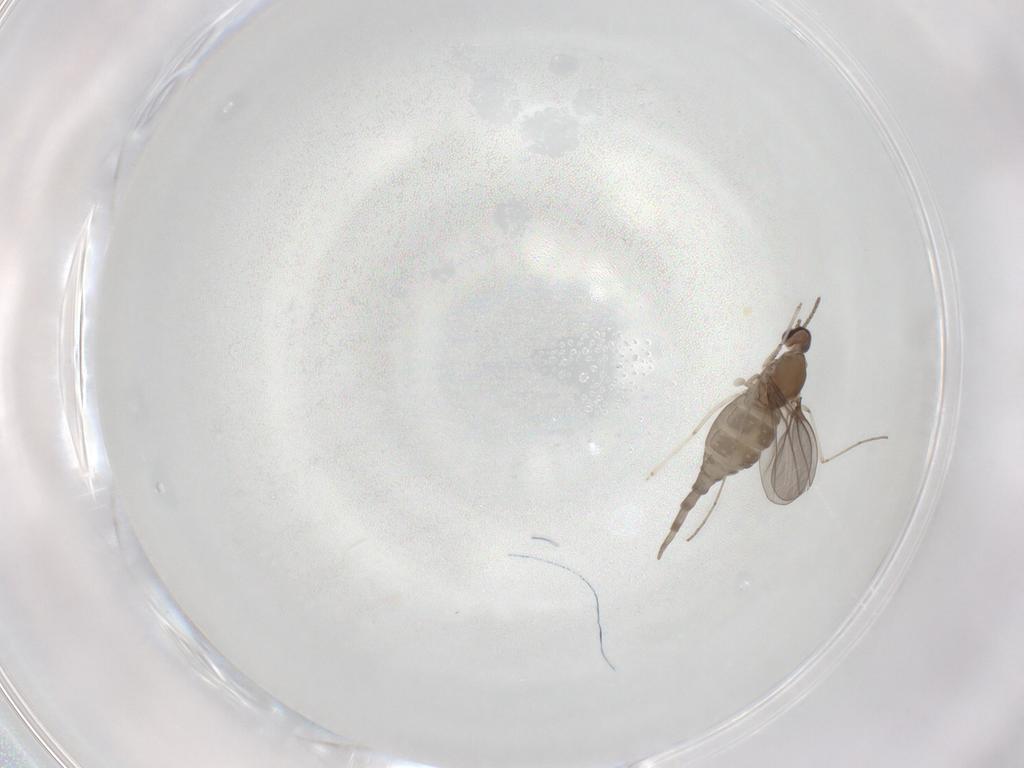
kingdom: Animalia
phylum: Arthropoda
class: Insecta
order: Diptera
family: Cecidomyiidae
